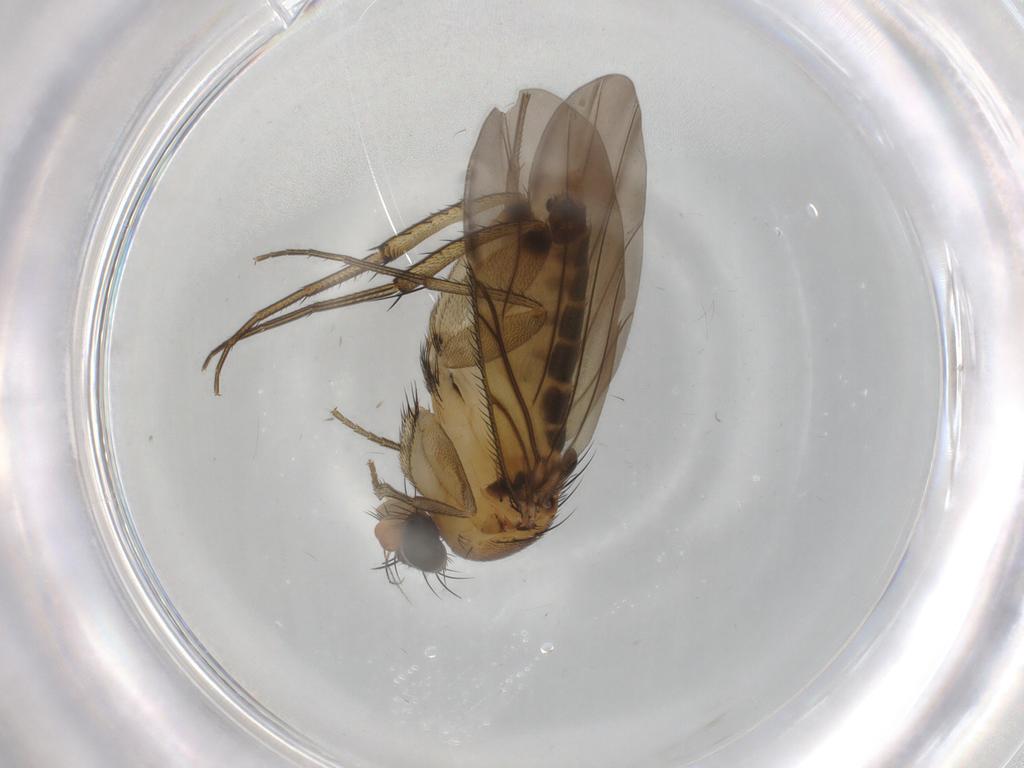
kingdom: Animalia
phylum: Arthropoda
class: Insecta
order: Diptera
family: Phoridae
